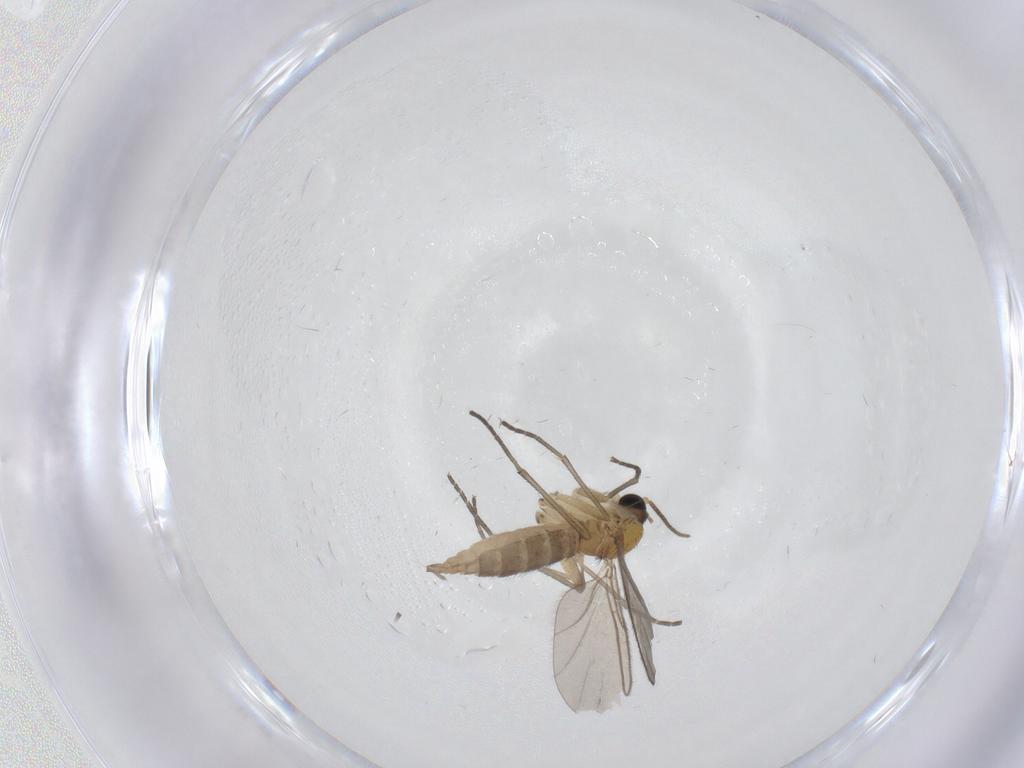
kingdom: Animalia
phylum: Arthropoda
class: Insecta
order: Diptera
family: Sciaridae
